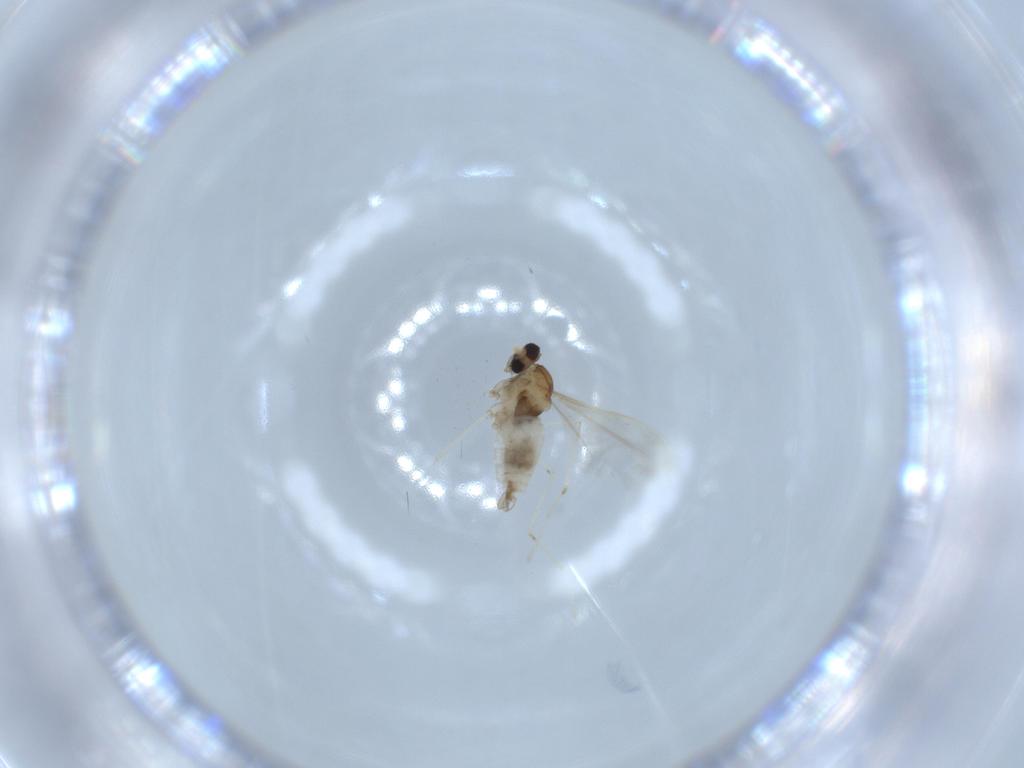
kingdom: Animalia
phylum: Arthropoda
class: Insecta
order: Diptera
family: Cecidomyiidae
